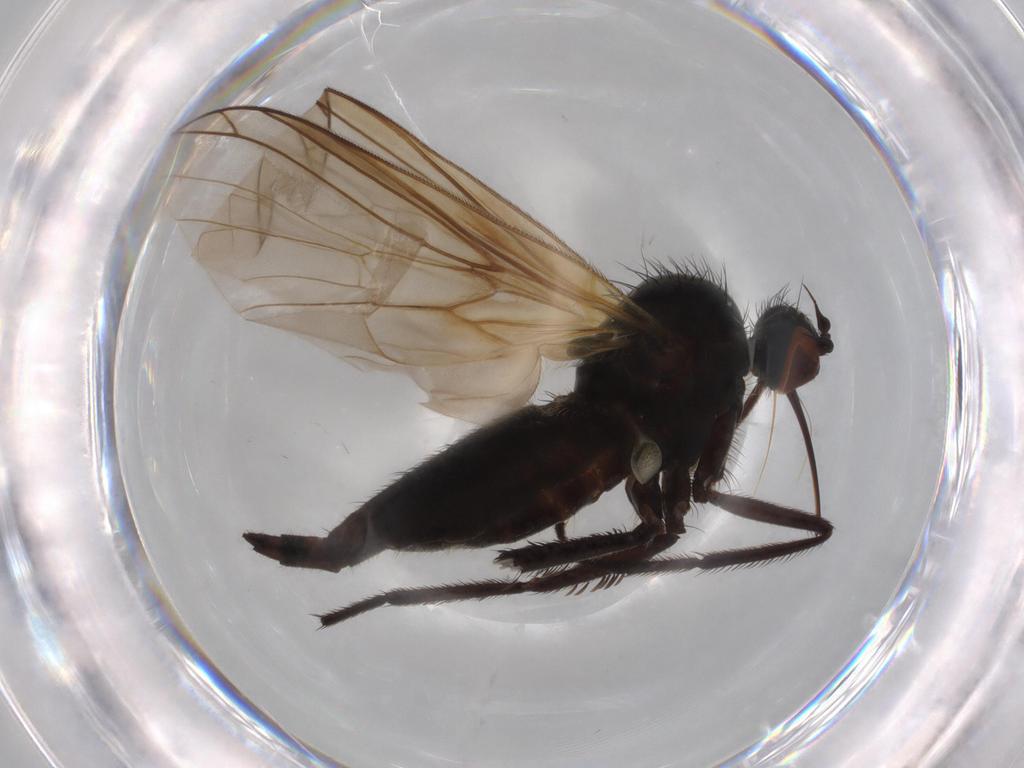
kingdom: Animalia
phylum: Arthropoda
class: Insecta
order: Diptera
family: Empididae
